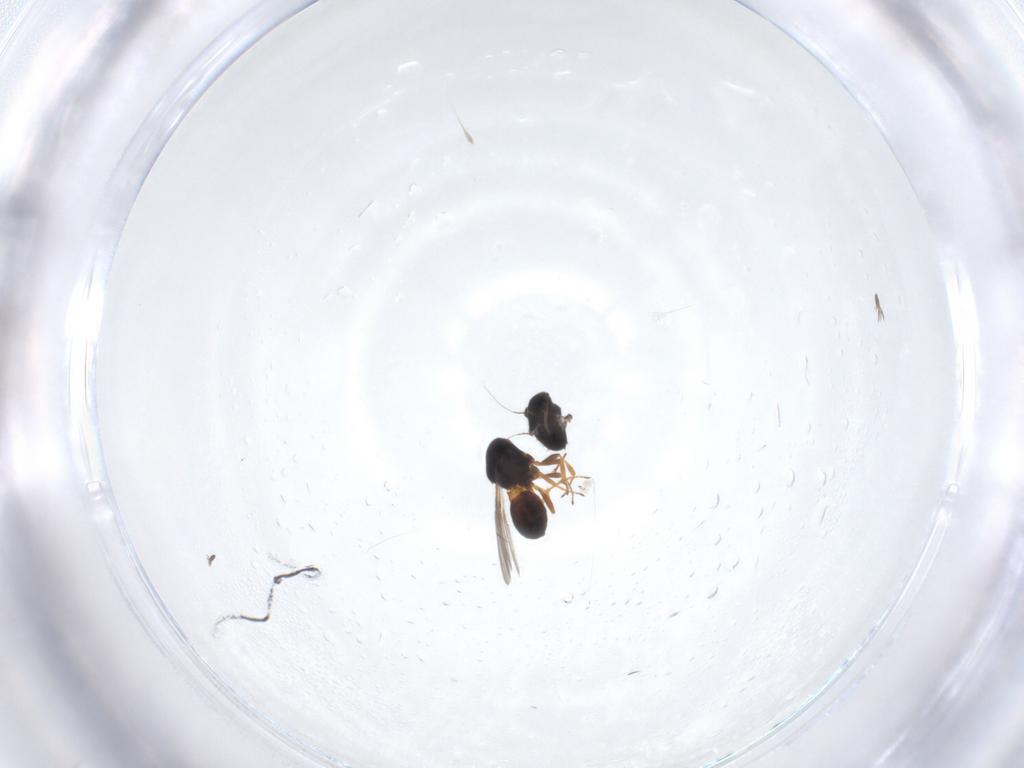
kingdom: Animalia
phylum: Arthropoda
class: Insecta
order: Hymenoptera
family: Scelionidae
